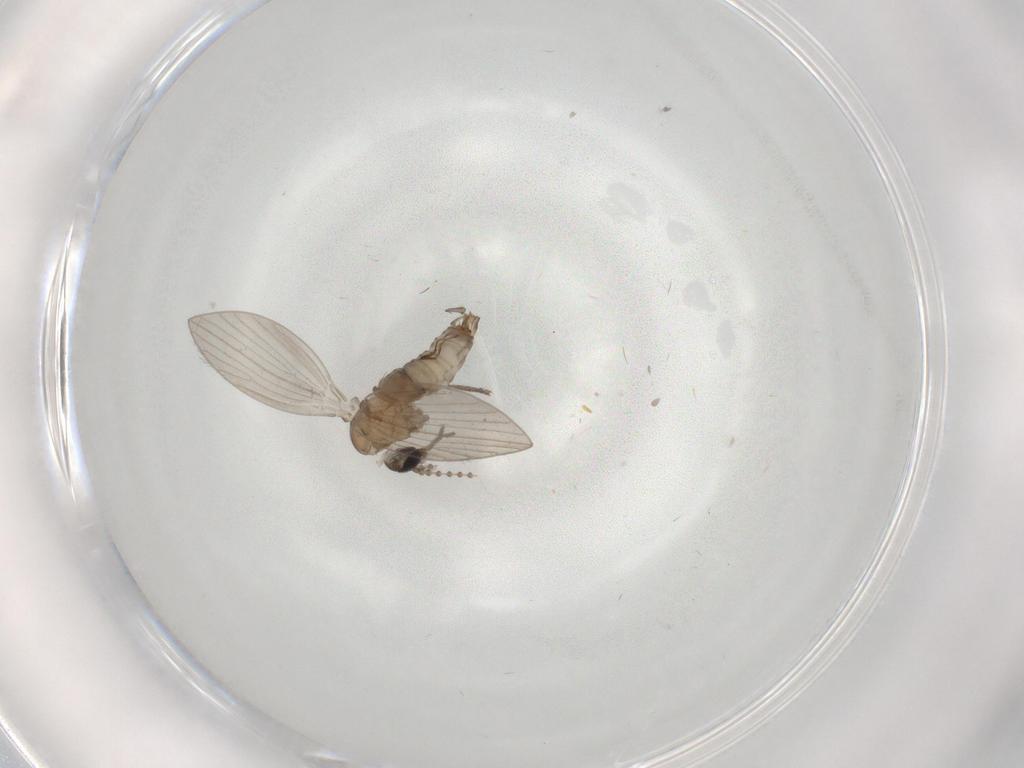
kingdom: Animalia
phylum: Arthropoda
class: Insecta
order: Diptera
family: Psychodidae
